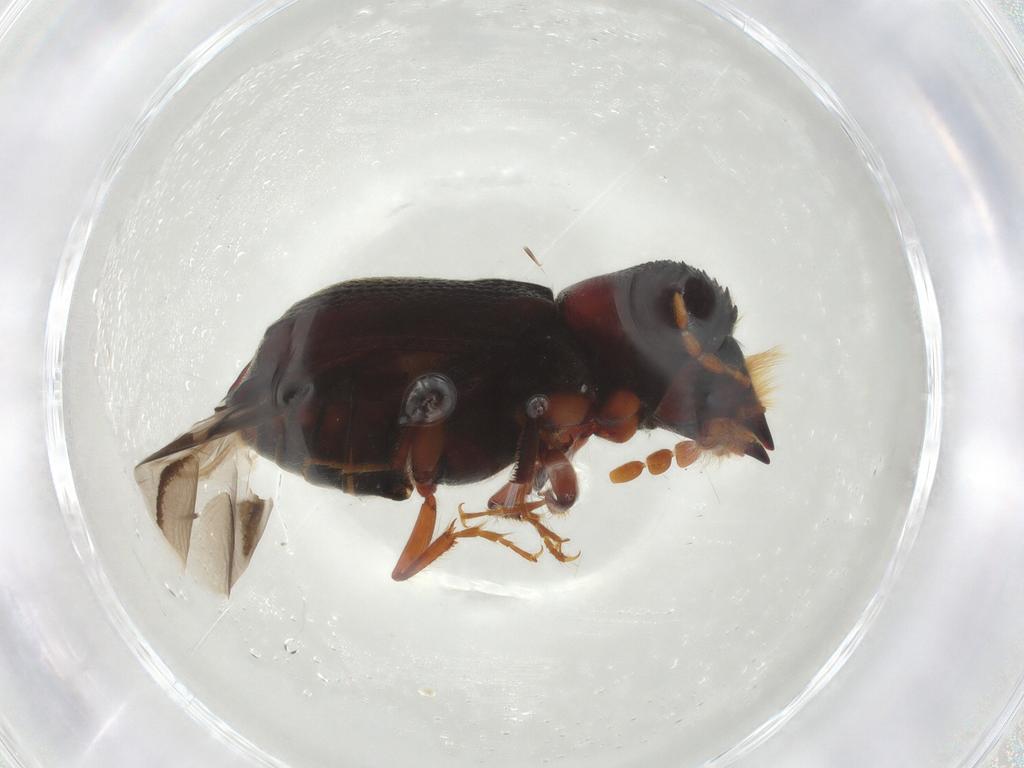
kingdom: Animalia
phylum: Arthropoda
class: Insecta
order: Coleoptera
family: Bostrichidae
